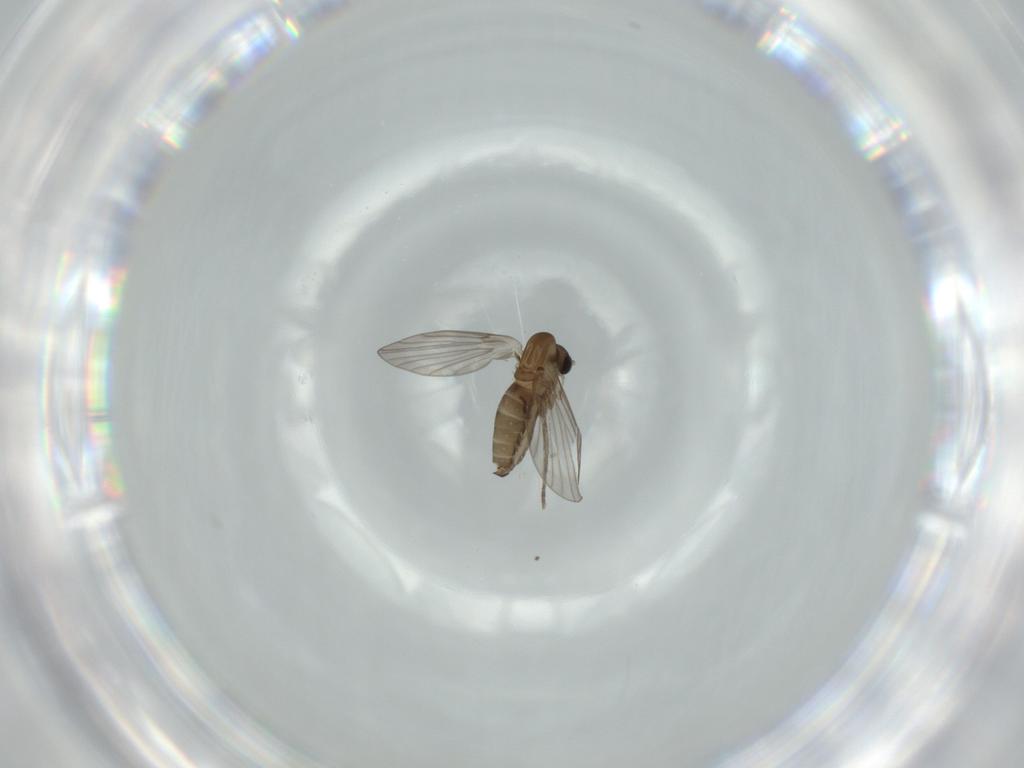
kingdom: Animalia
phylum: Arthropoda
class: Insecta
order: Diptera
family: Psychodidae
